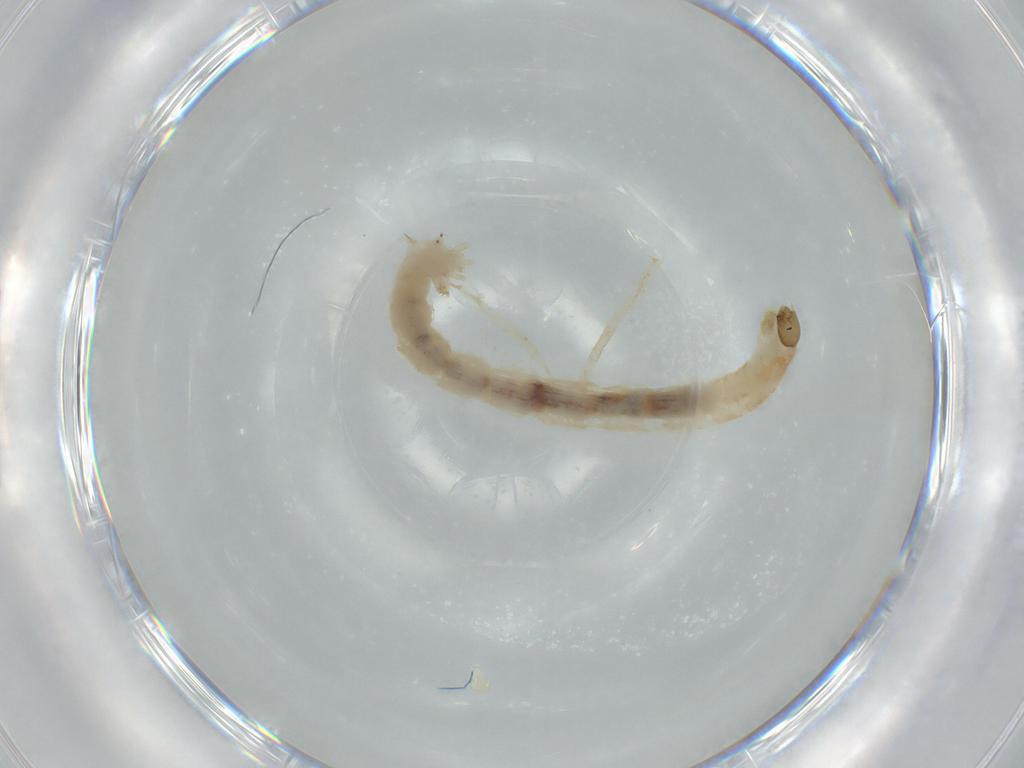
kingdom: Animalia
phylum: Arthropoda
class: Insecta
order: Diptera
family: Chironomidae
